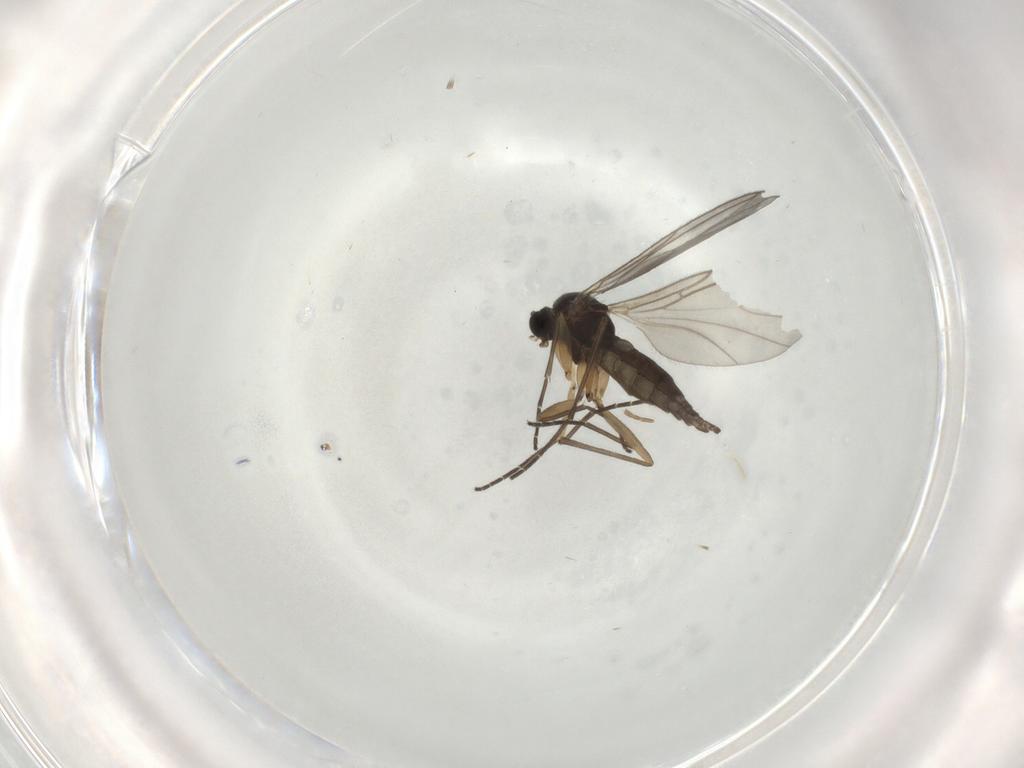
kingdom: Animalia
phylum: Arthropoda
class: Insecta
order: Diptera
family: Sciaridae
